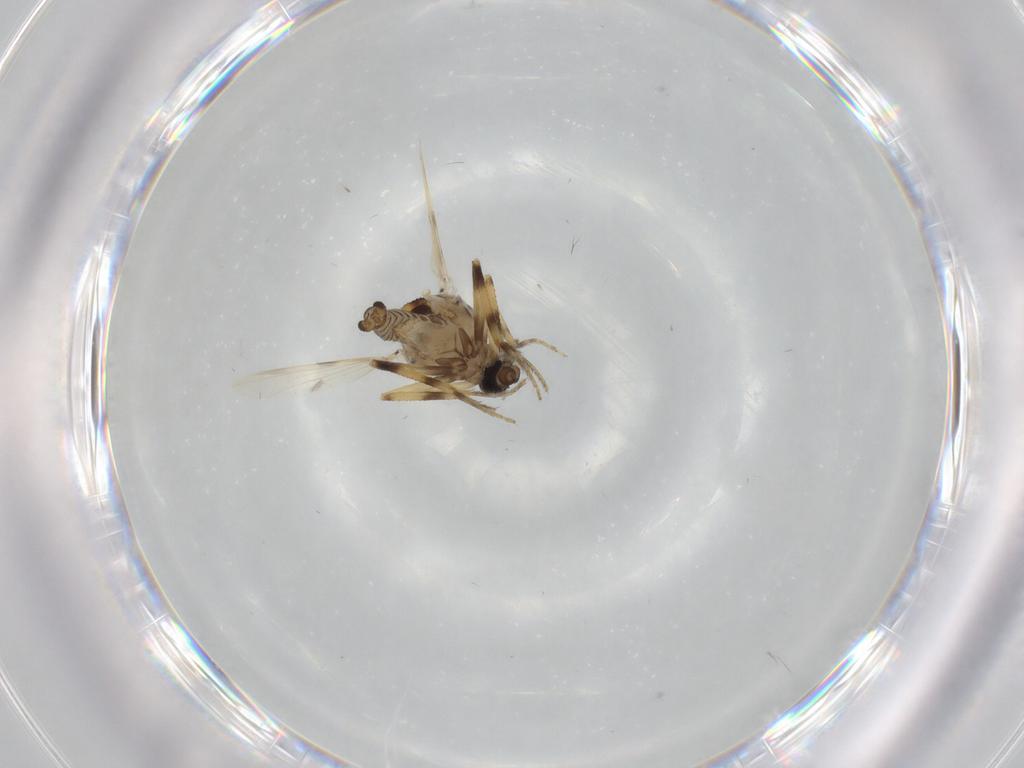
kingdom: Animalia
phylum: Arthropoda
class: Insecta
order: Diptera
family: Ceratopogonidae
